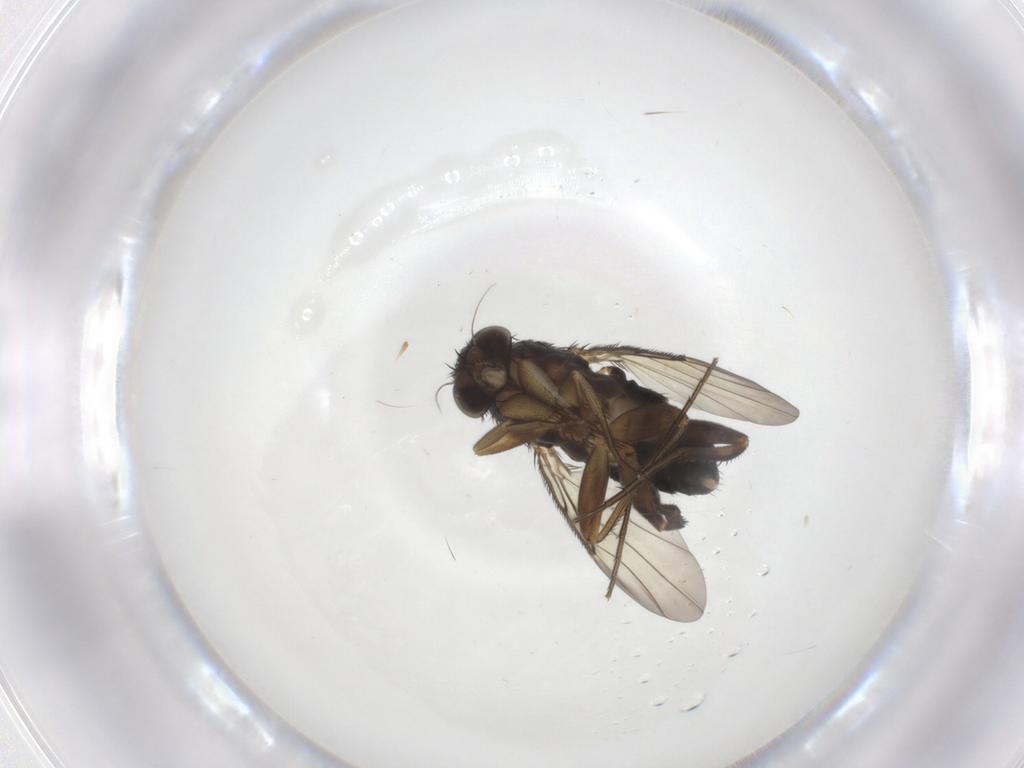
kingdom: Animalia
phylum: Arthropoda
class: Insecta
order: Diptera
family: Phoridae
